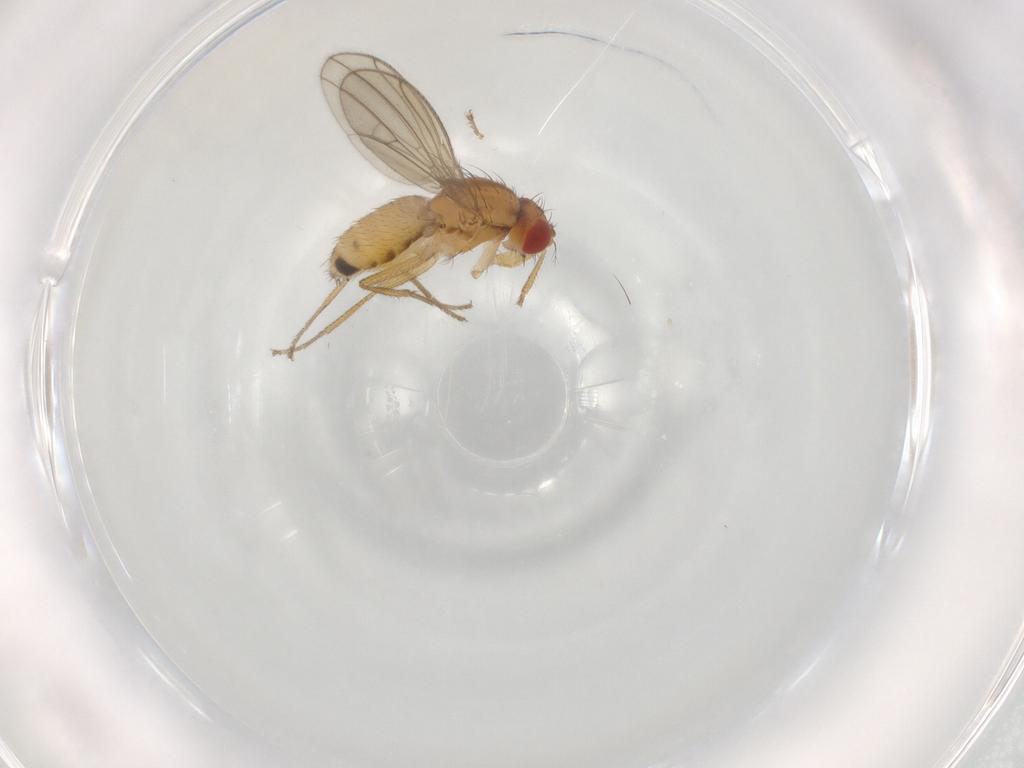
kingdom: Animalia
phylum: Arthropoda
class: Insecta
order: Diptera
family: Drosophilidae
